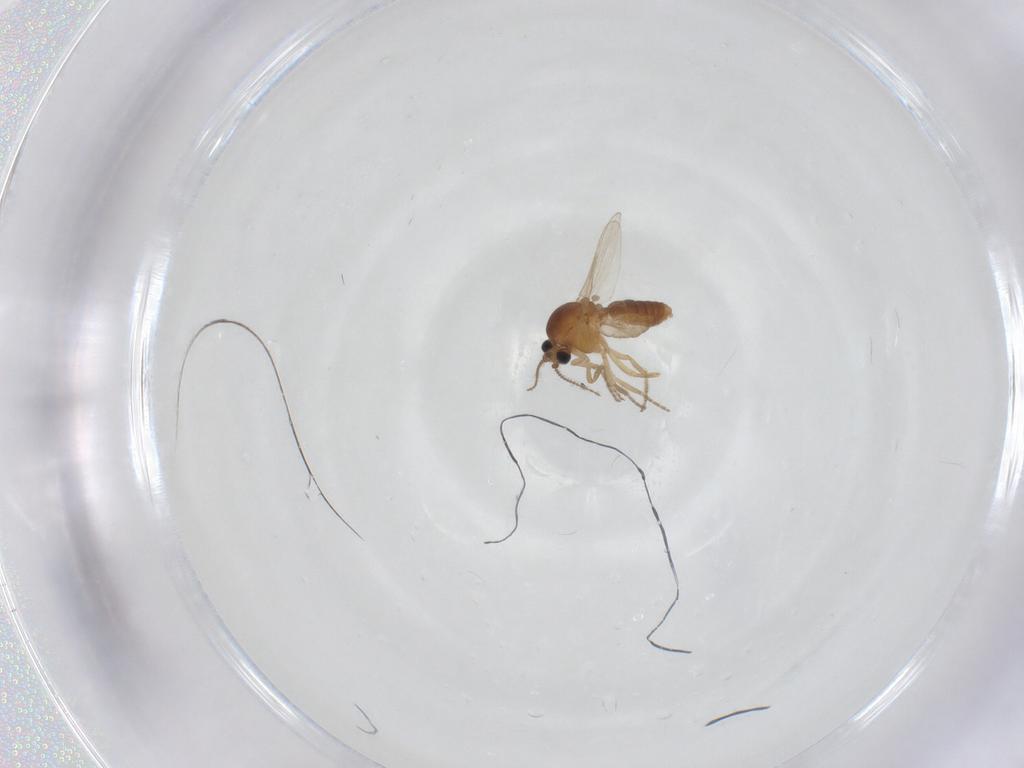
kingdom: Animalia
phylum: Arthropoda
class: Insecta
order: Diptera
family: Ceratopogonidae
